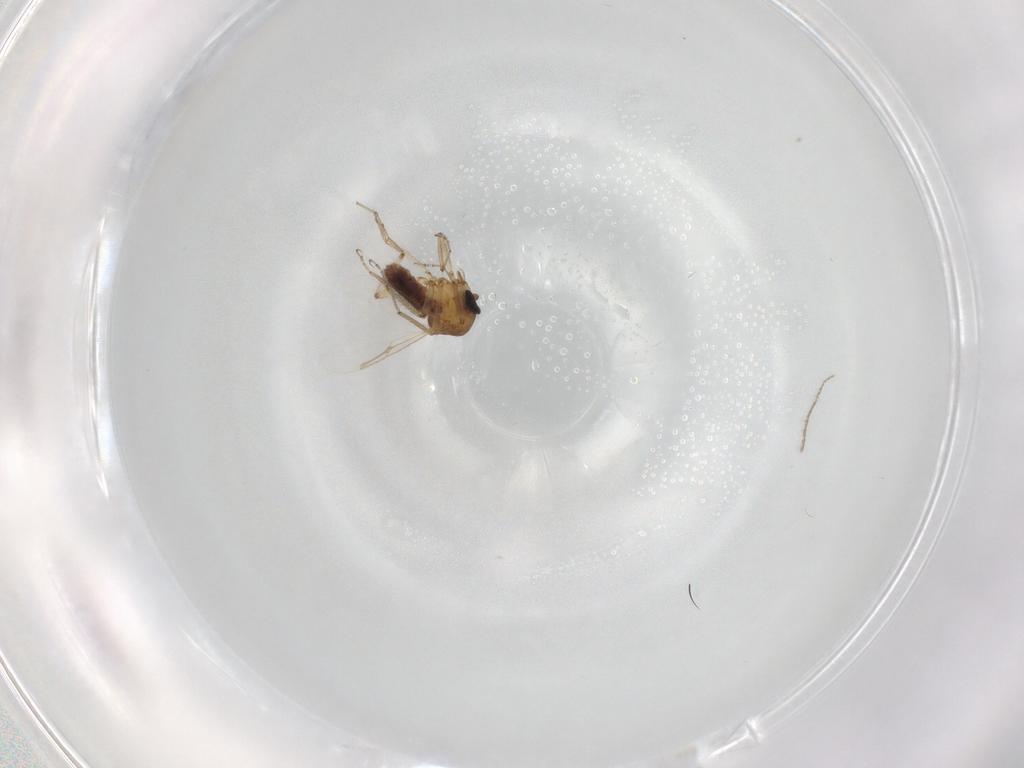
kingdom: Animalia
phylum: Arthropoda
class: Insecta
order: Diptera
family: Ceratopogonidae
